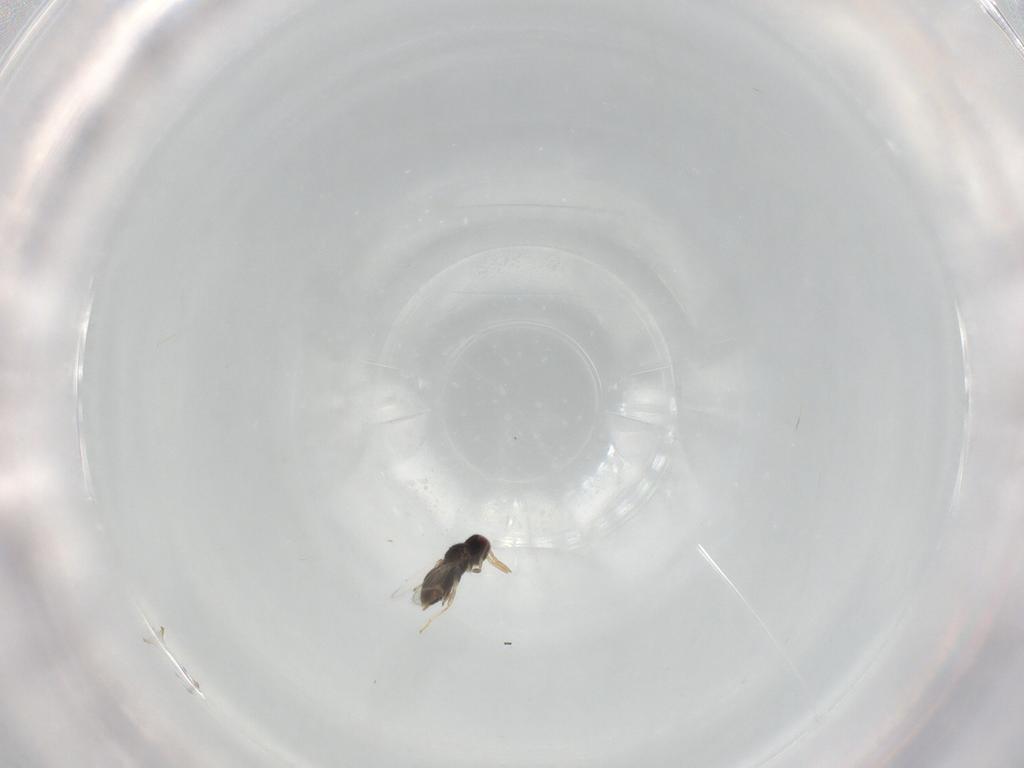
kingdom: Animalia
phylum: Arthropoda
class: Insecta
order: Hymenoptera
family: Aphelinidae
